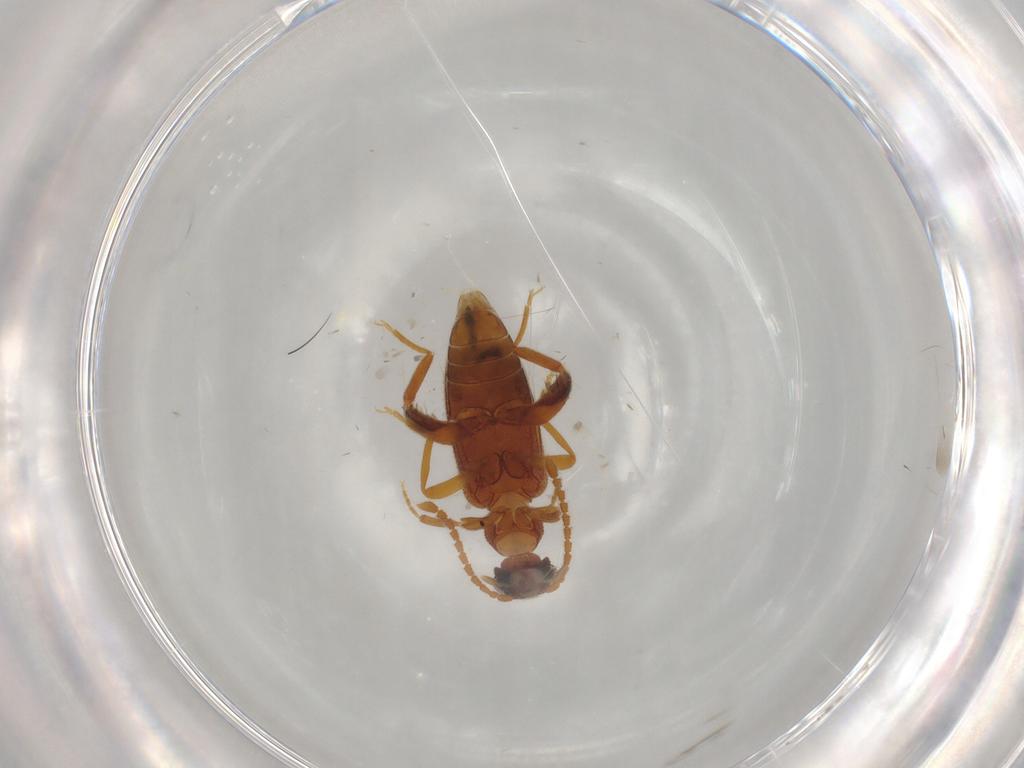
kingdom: Animalia
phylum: Arthropoda
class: Insecta
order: Coleoptera
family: Aderidae
